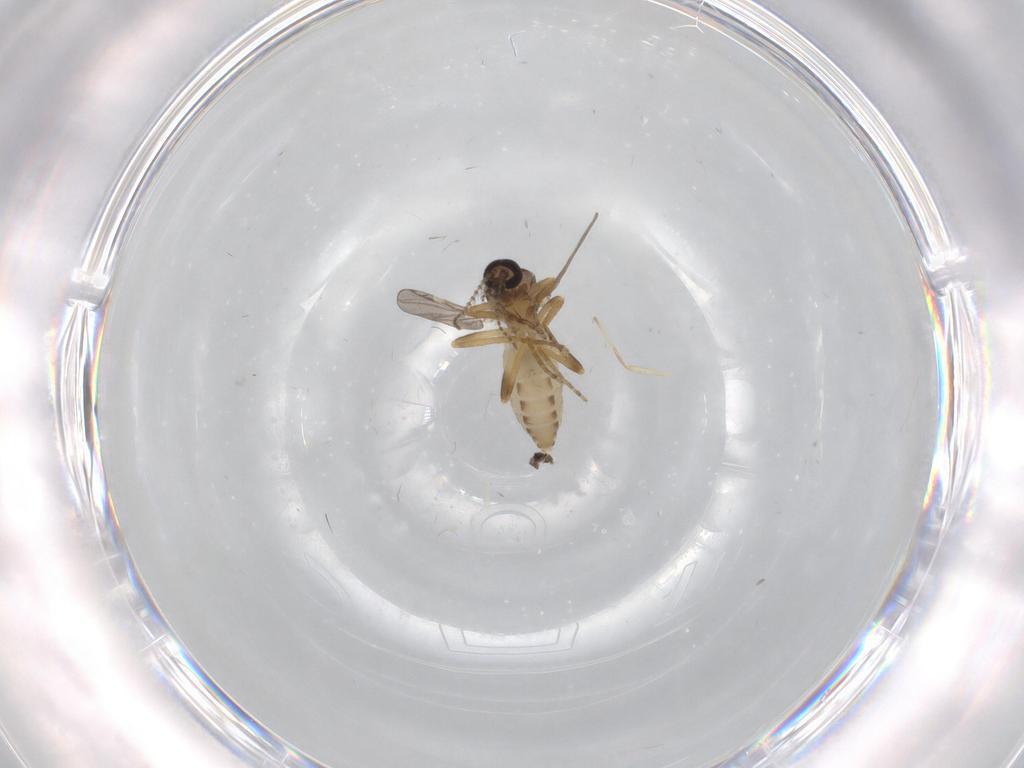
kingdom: Animalia
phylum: Arthropoda
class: Insecta
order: Diptera
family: Ceratopogonidae
